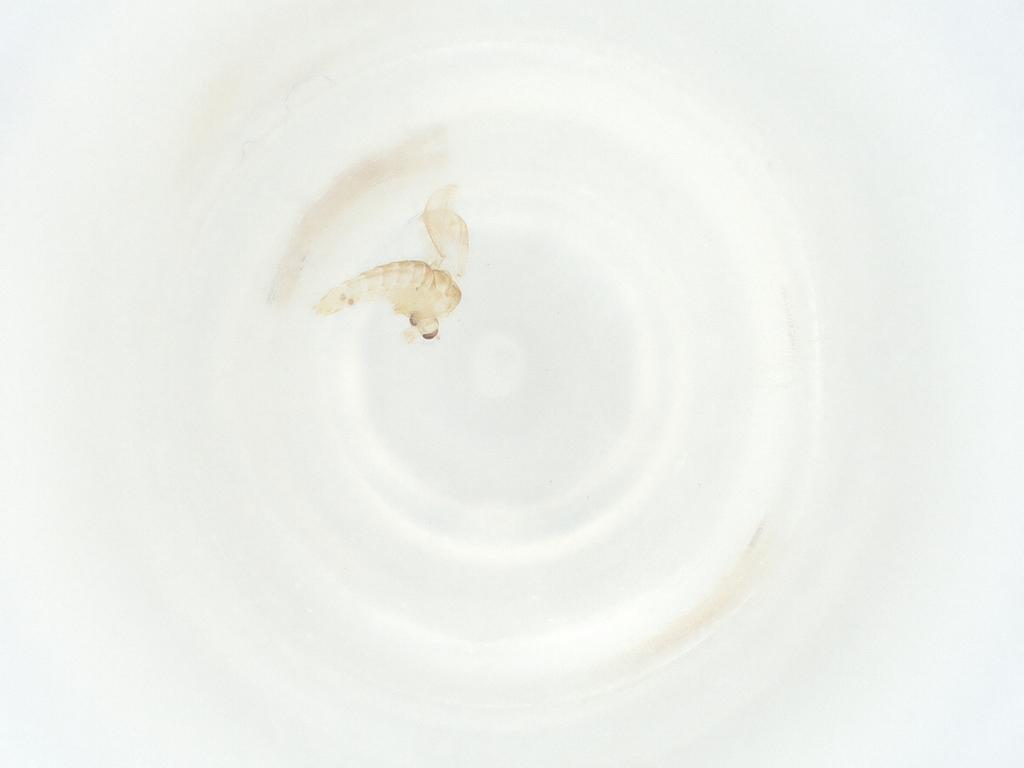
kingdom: Animalia
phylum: Arthropoda
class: Insecta
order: Diptera
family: Chironomidae
